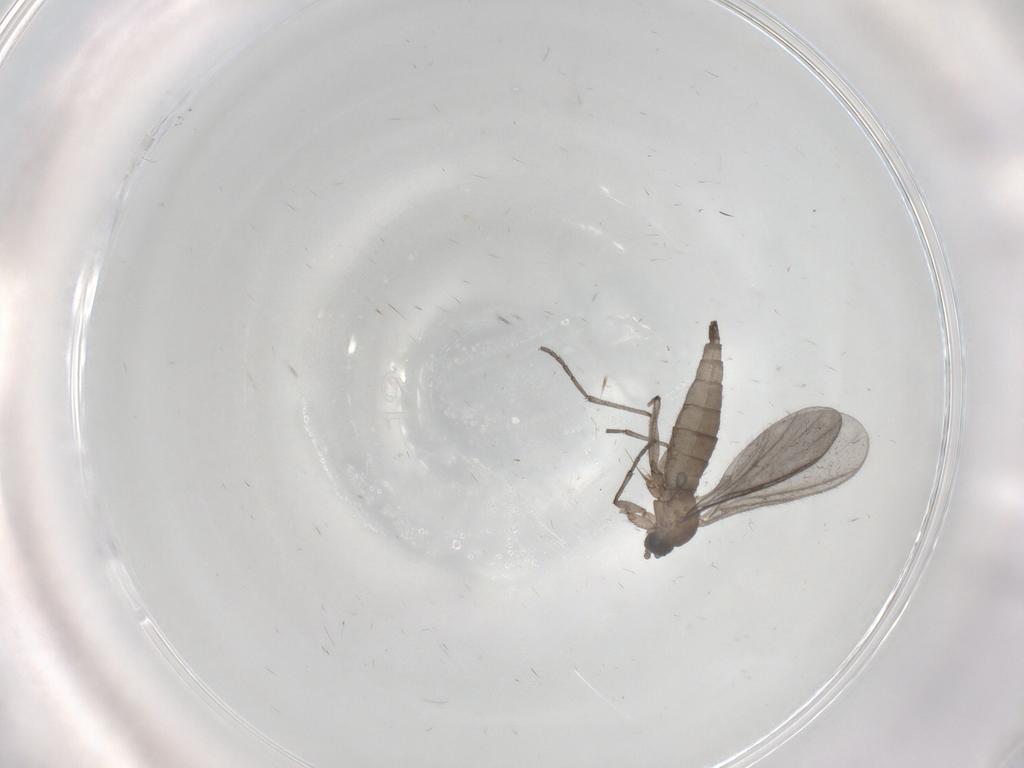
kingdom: Animalia
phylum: Arthropoda
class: Insecta
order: Diptera
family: Sciaridae
